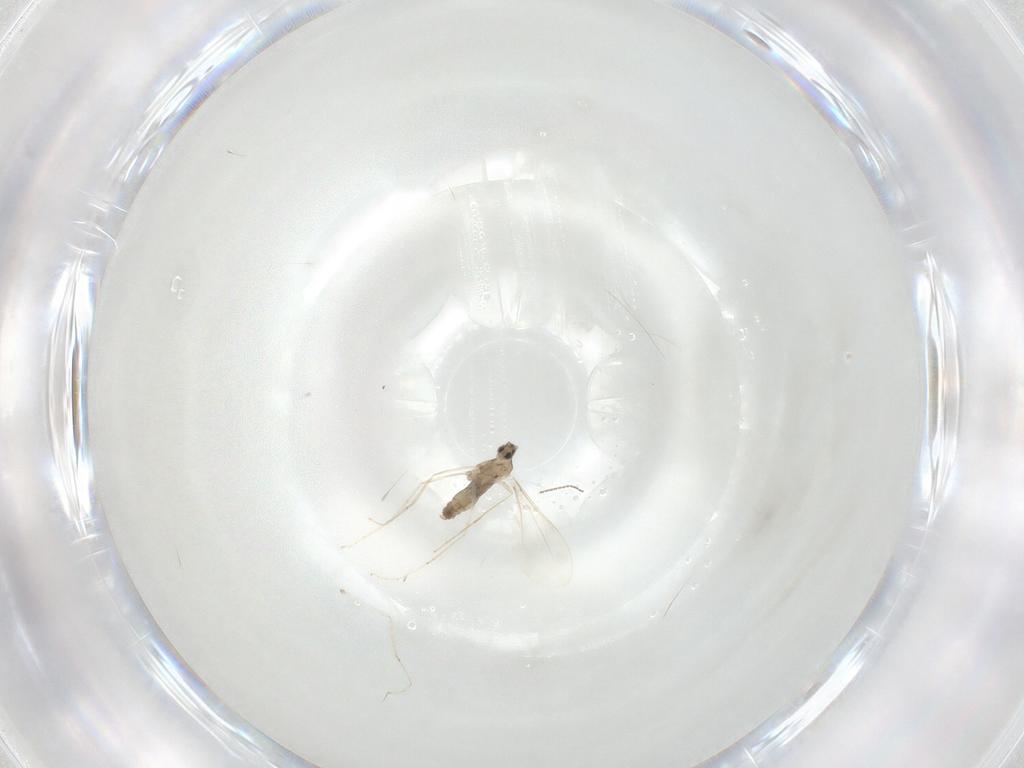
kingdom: Animalia
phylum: Arthropoda
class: Insecta
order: Diptera
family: Cecidomyiidae
